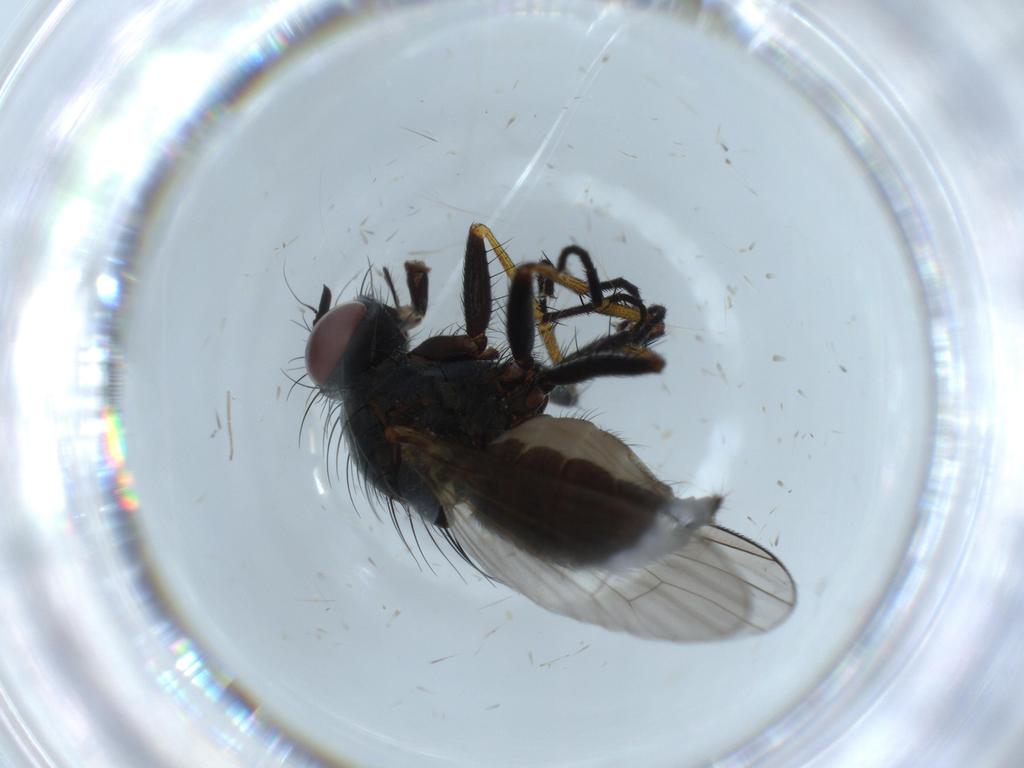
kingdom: Animalia
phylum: Arthropoda
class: Insecta
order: Diptera
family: Muscidae
